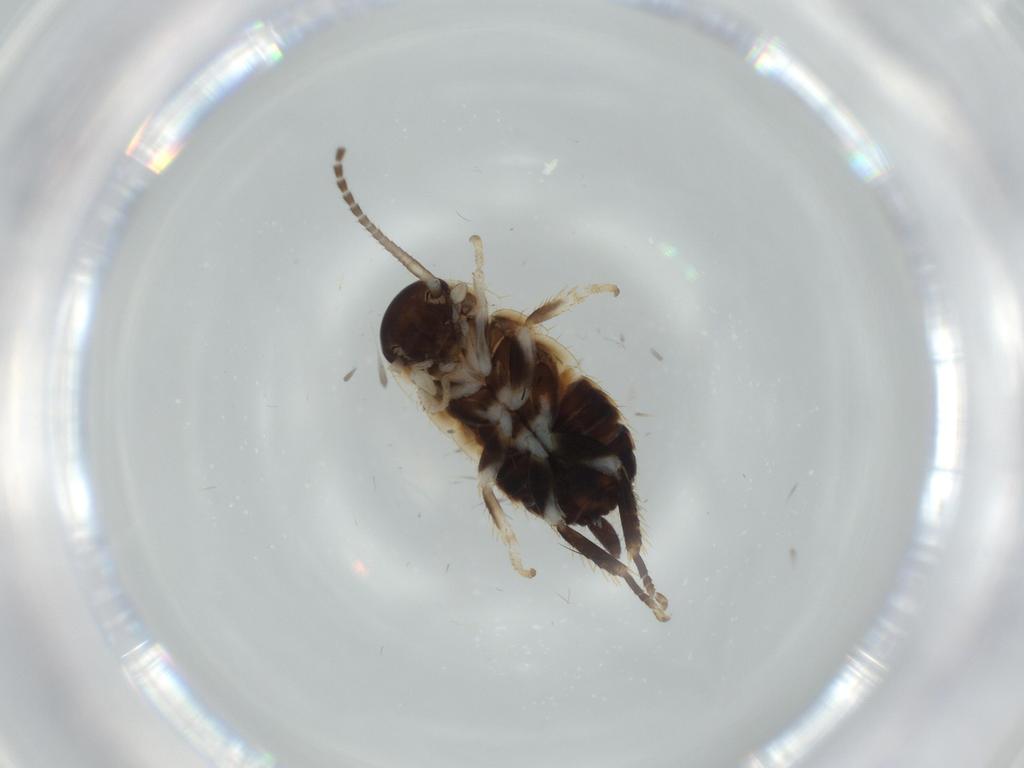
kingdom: Animalia
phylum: Arthropoda
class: Insecta
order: Blattodea
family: Ectobiidae
